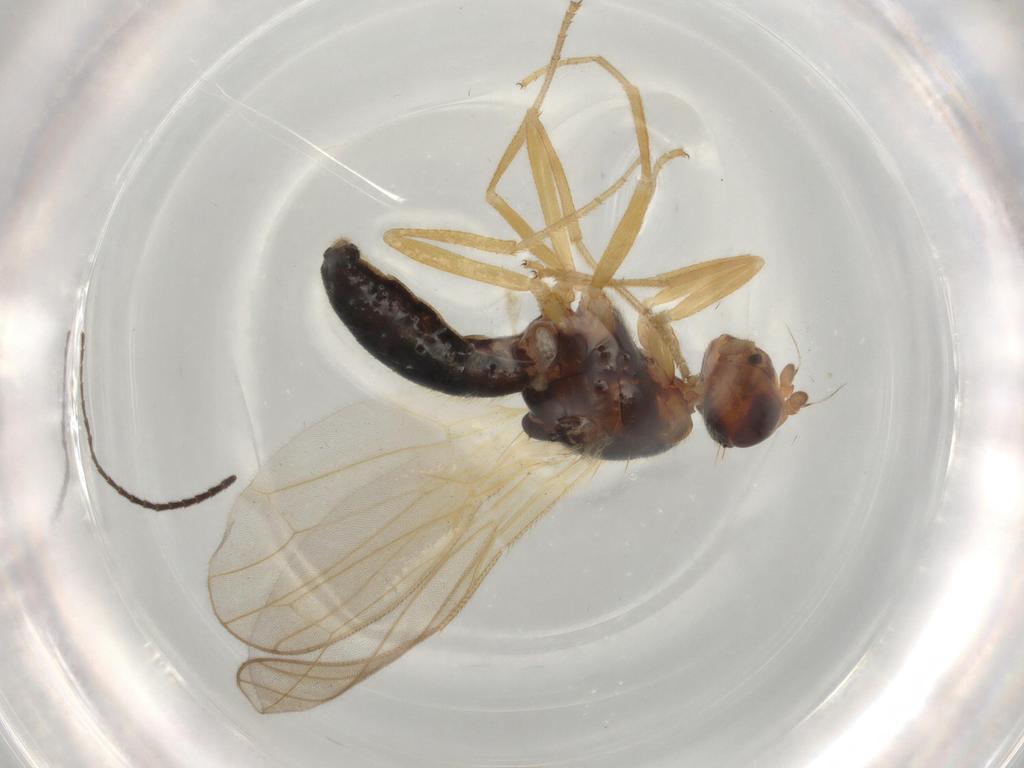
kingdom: Animalia
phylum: Arthropoda
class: Insecta
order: Diptera
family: Hybotidae
